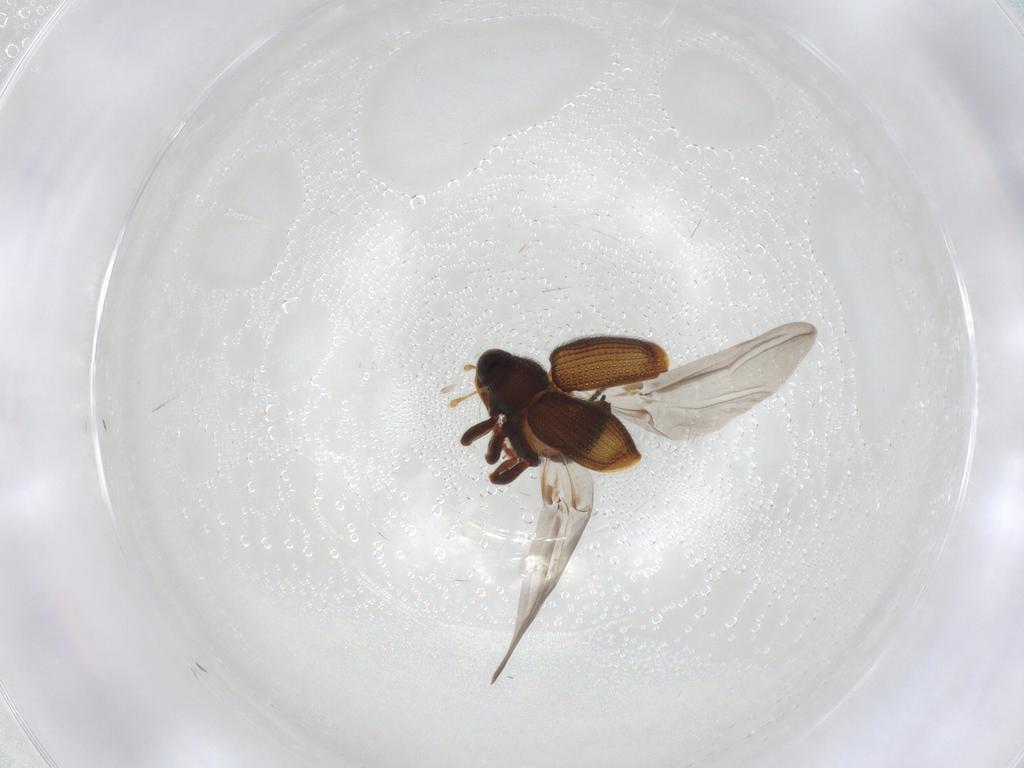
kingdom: Animalia
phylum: Arthropoda
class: Insecta
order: Coleoptera
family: Curculionidae
